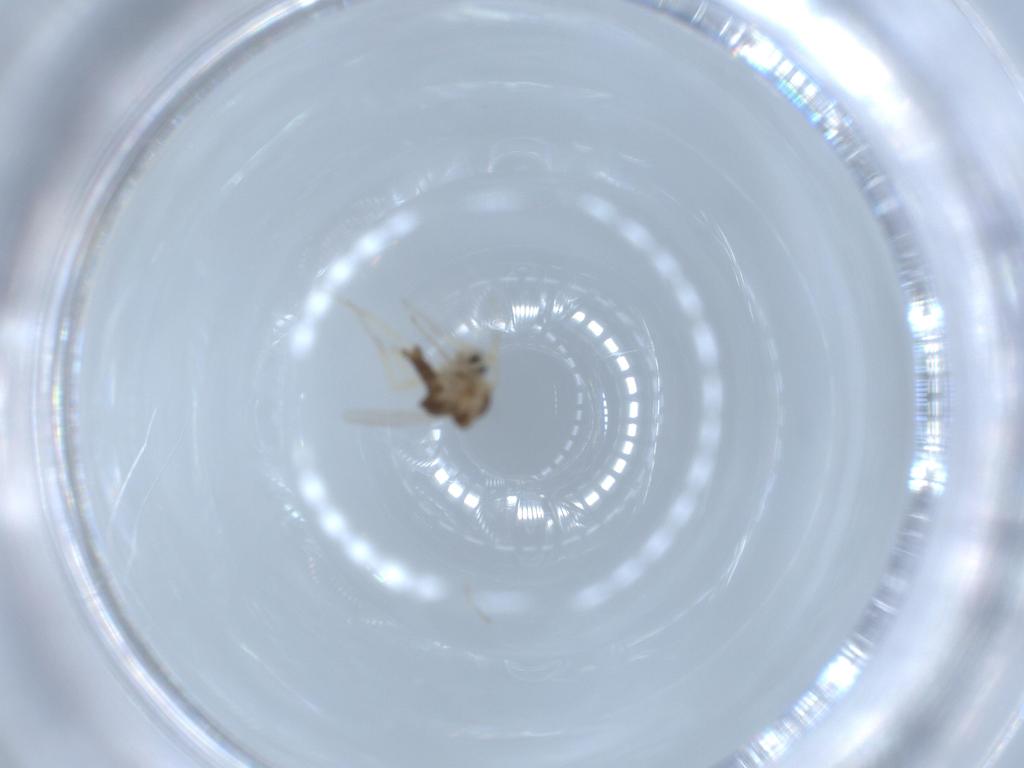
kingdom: Animalia
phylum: Arthropoda
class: Insecta
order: Diptera
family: Ceratopogonidae
